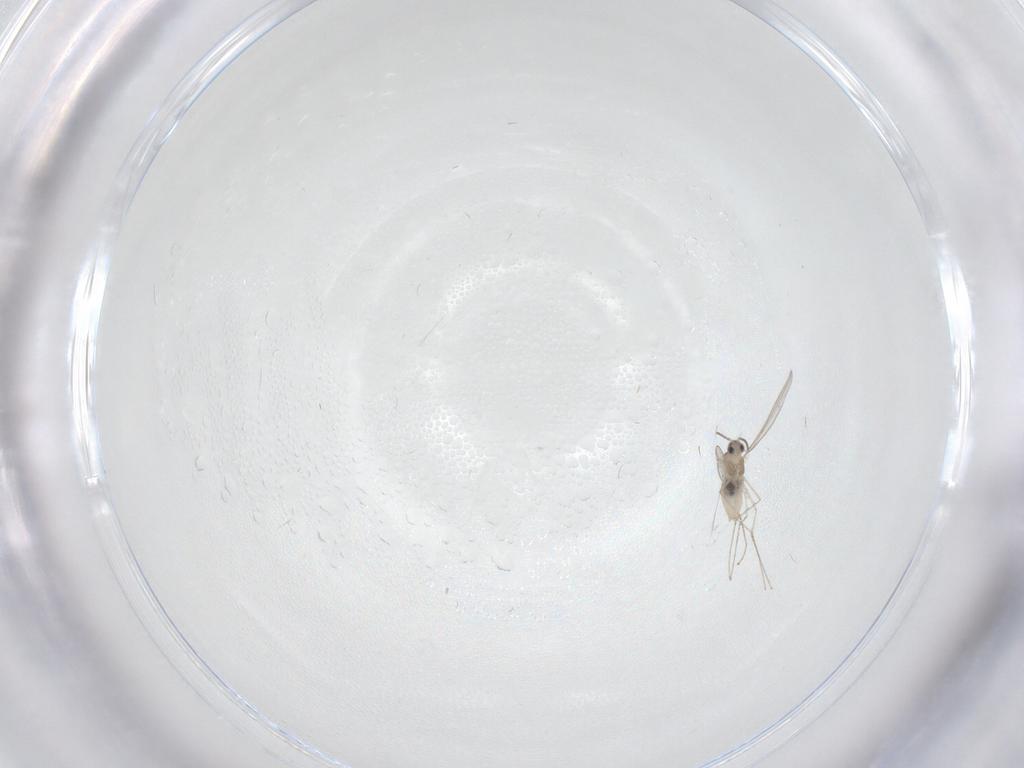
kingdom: Animalia
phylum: Arthropoda
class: Insecta
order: Diptera
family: Cecidomyiidae
